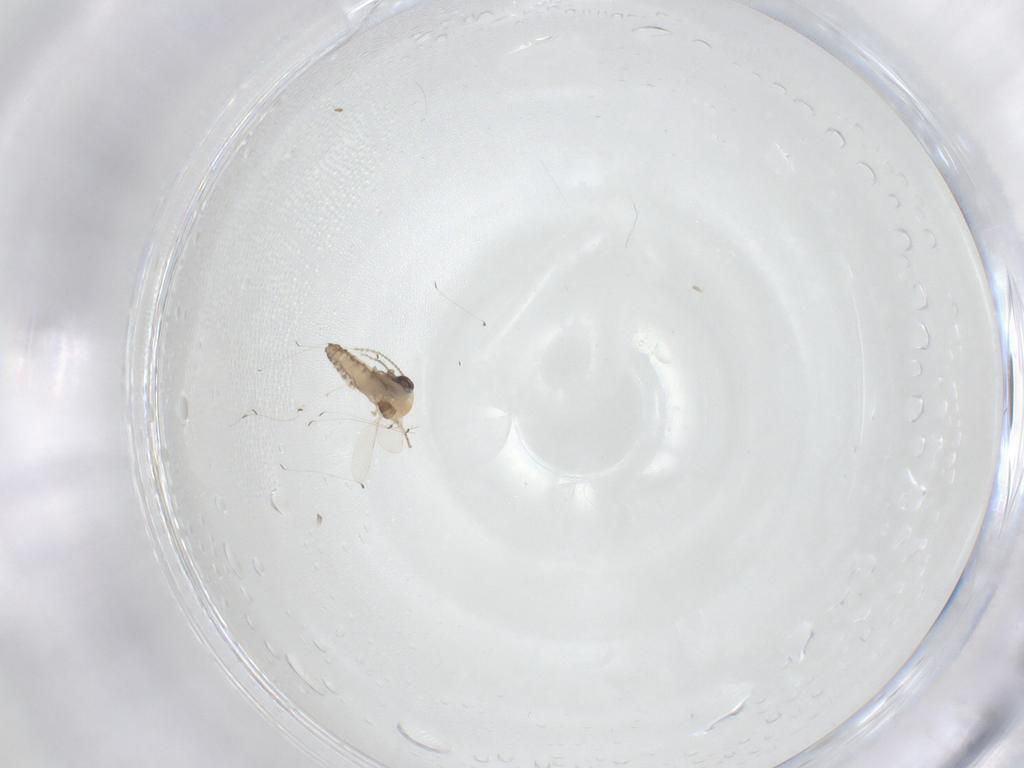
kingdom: Animalia
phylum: Arthropoda
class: Insecta
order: Diptera
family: Ceratopogonidae
